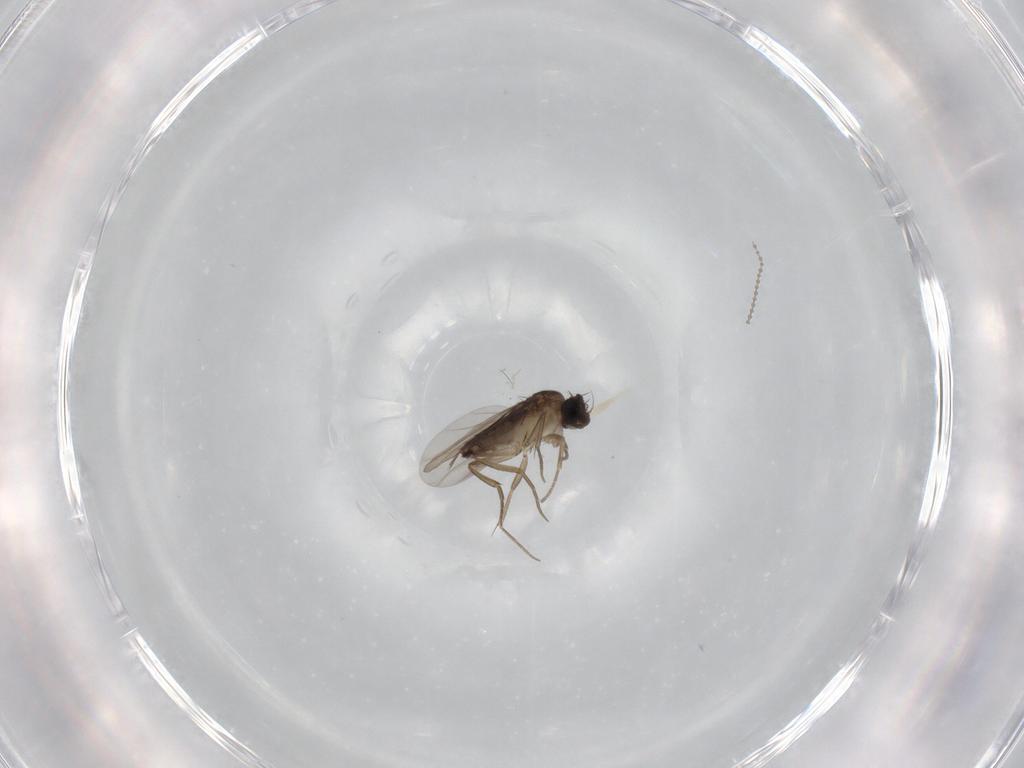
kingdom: Animalia
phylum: Arthropoda
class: Insecta
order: Diptera
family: Phoridae
